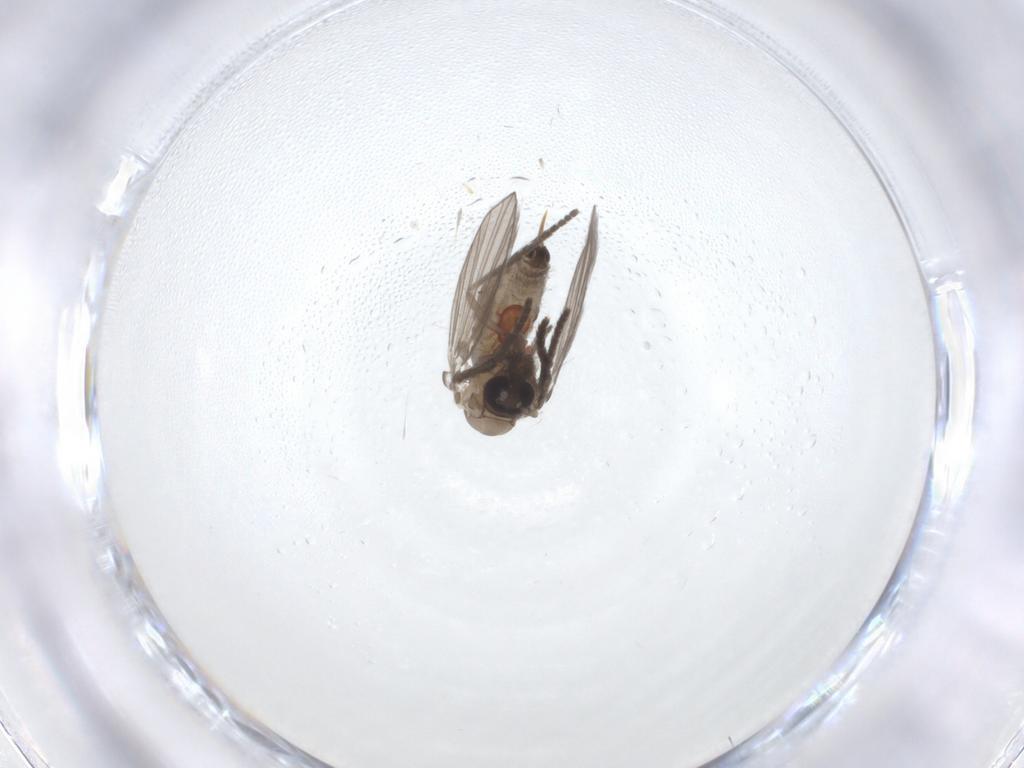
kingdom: Animalia
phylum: Arthropoda
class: Insecta
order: Diptera
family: Psychodidae
